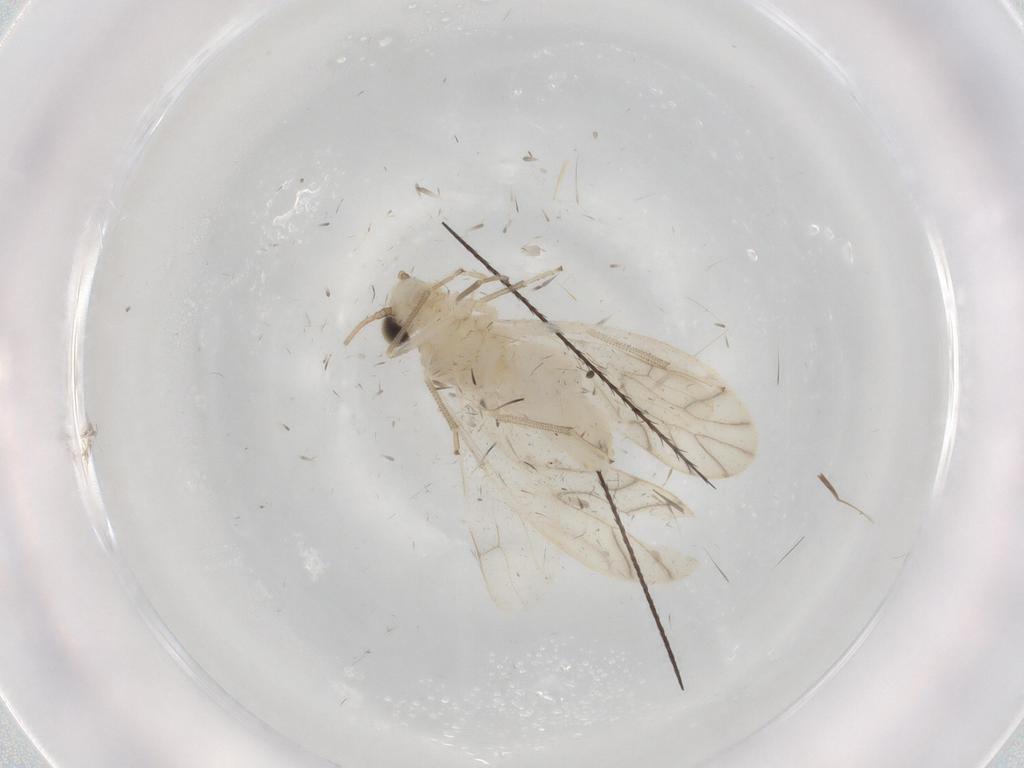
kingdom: Animalia
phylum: Arthropoda
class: Insecta
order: Psocodea
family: Caeciliusidae
